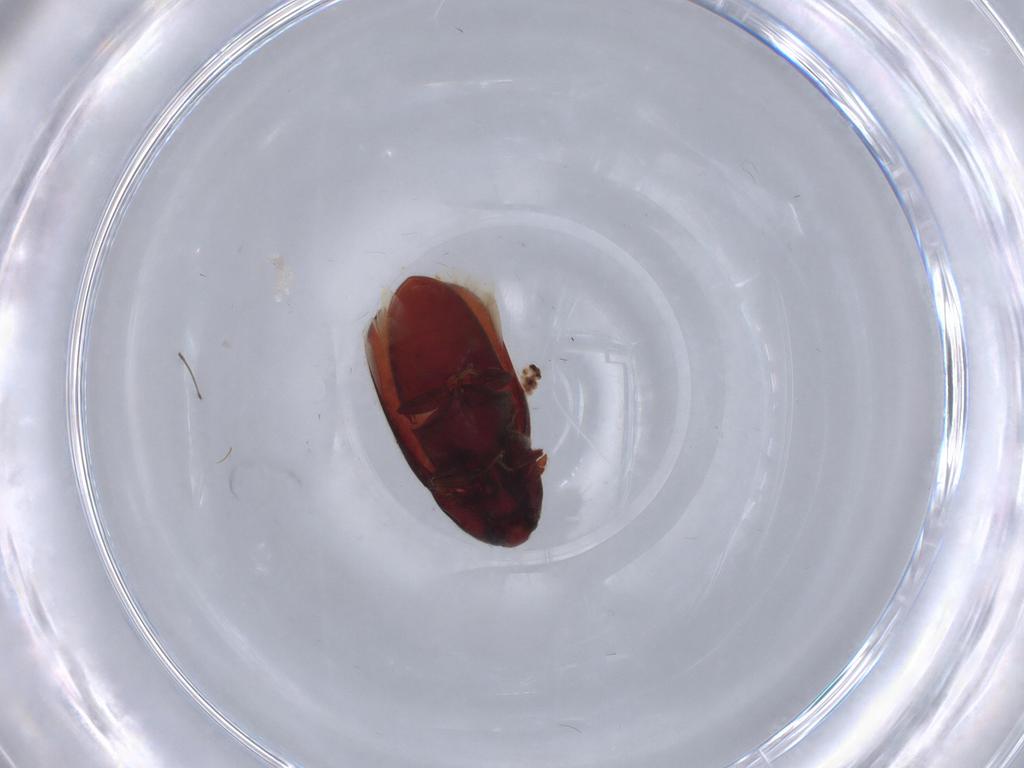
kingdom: Animalia
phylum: Arthropoda
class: Insecta
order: Coleoptera
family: Throscidae
